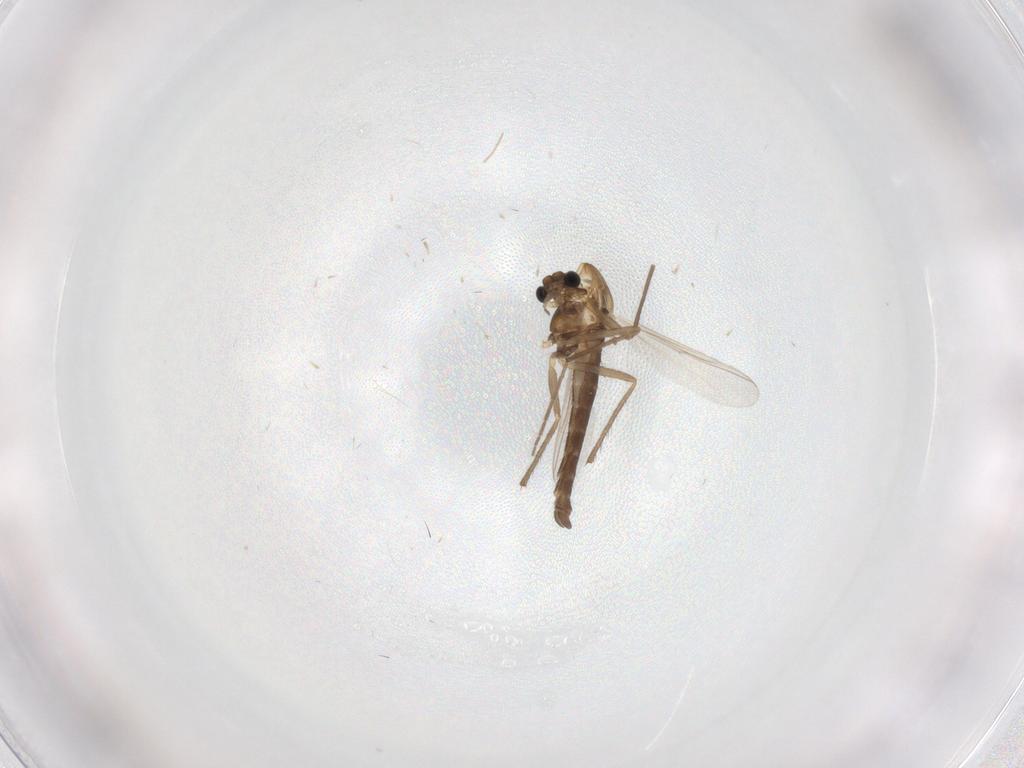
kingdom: Animalia
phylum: Arthropoda
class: Insecta
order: Diptera
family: Chironomidae
